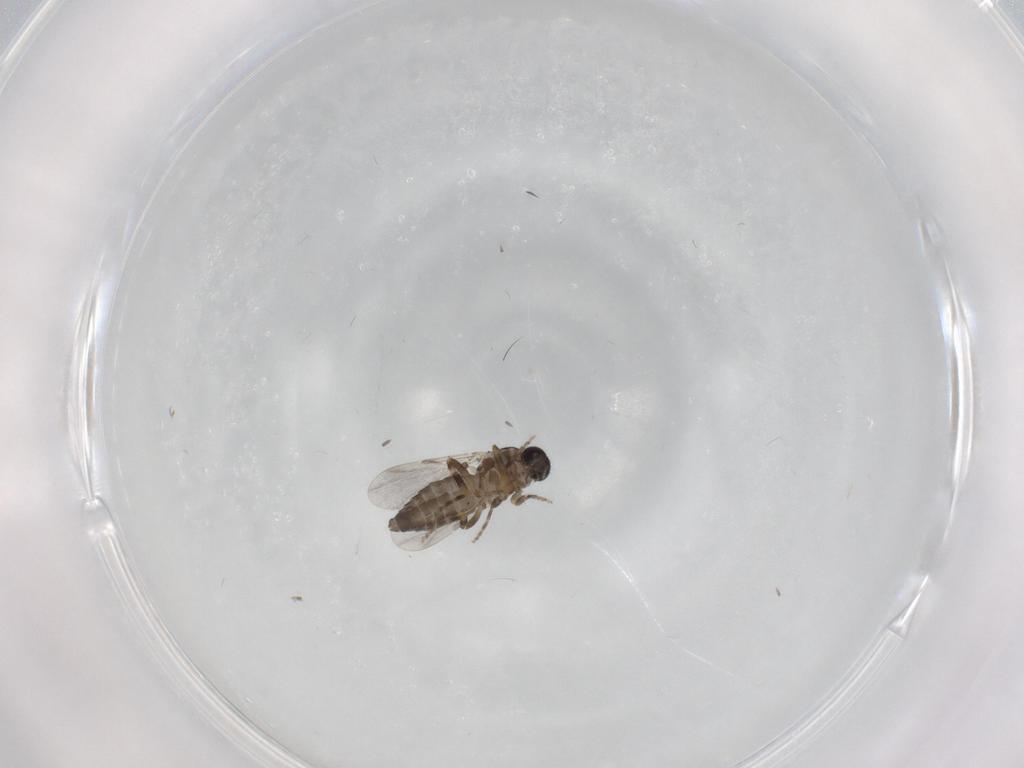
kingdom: Animalia
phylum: Arthropoda
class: Insecta
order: Diptera
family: Ceratopogonidae
